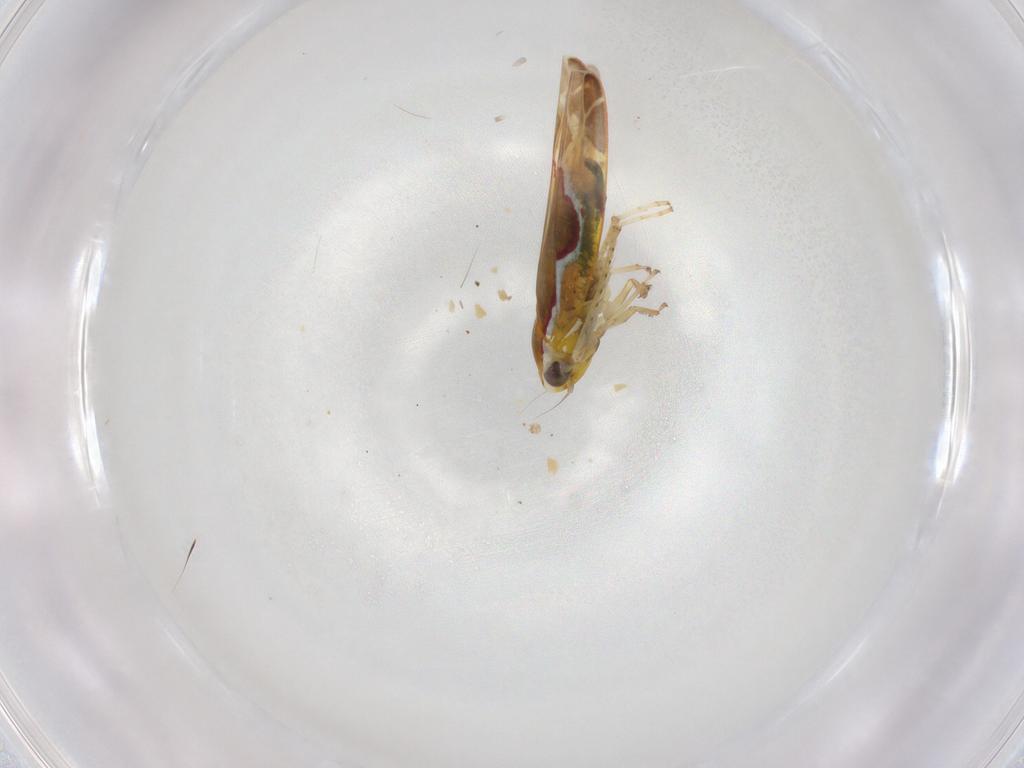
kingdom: Animalia
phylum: Arthropoda
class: Insecta
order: Hemiptera
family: Cicadellidae
